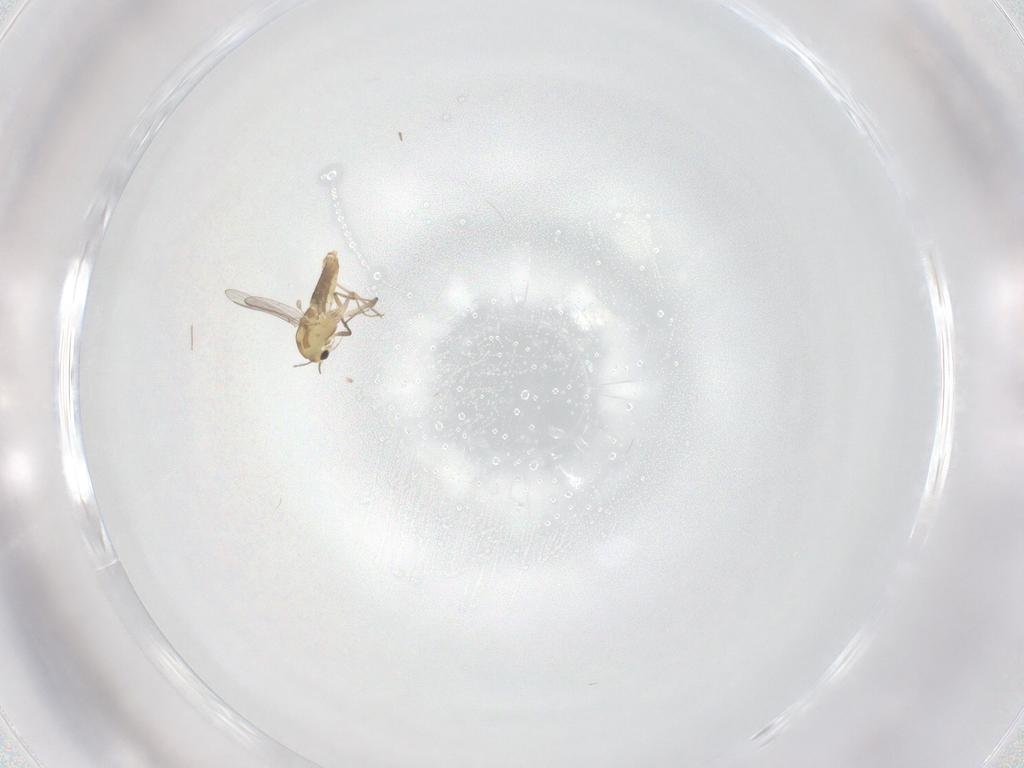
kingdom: Animalia
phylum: Arthropoda
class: Insecta
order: Diptera
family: Chironomidae
